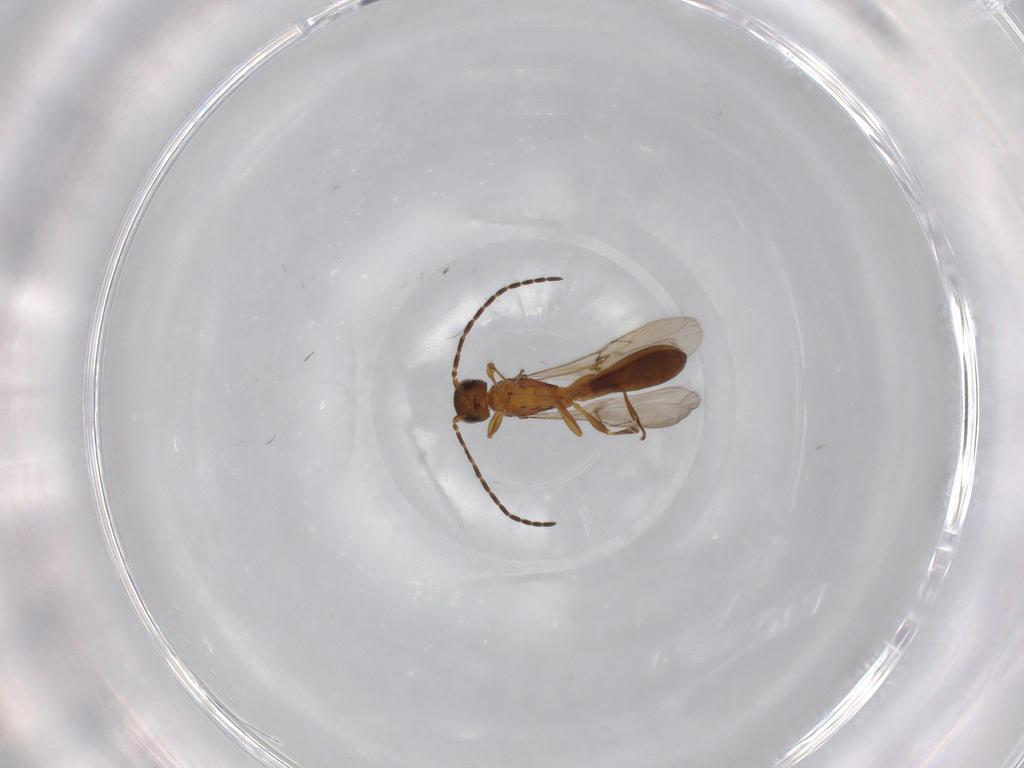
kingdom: Animalia
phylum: Arthropoda
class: Insecta
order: Hymenoptera
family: Scelionidae
